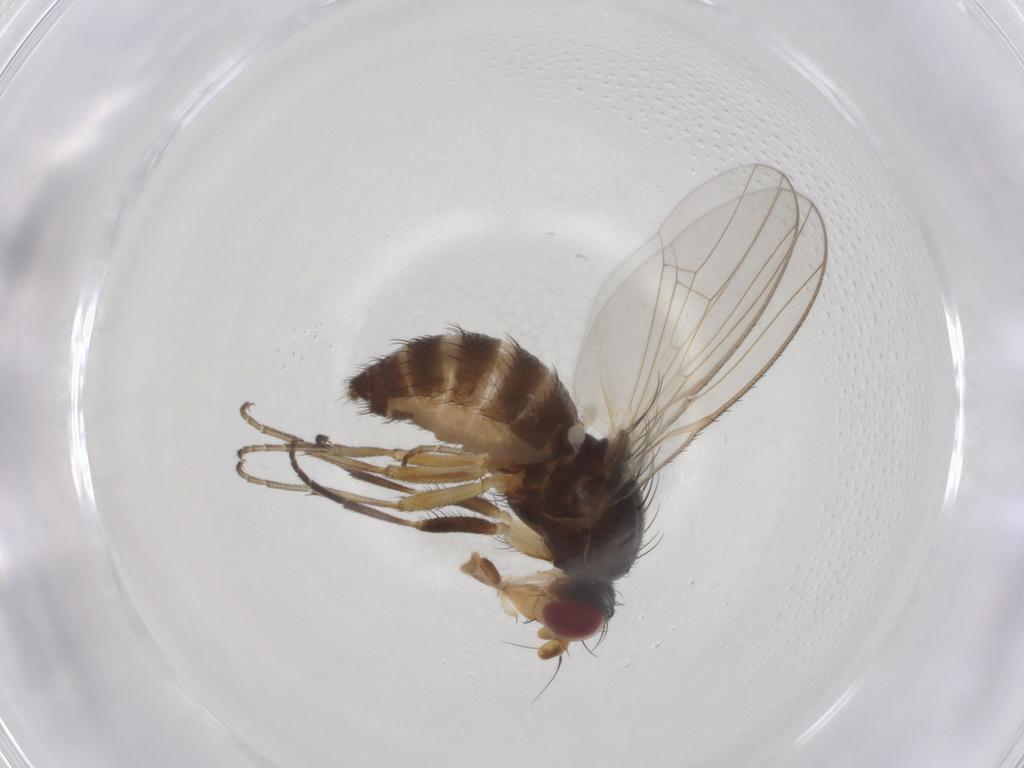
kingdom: Animalia
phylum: Arthropoda
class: Insecta
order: Diptera
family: Heleomyzidae
